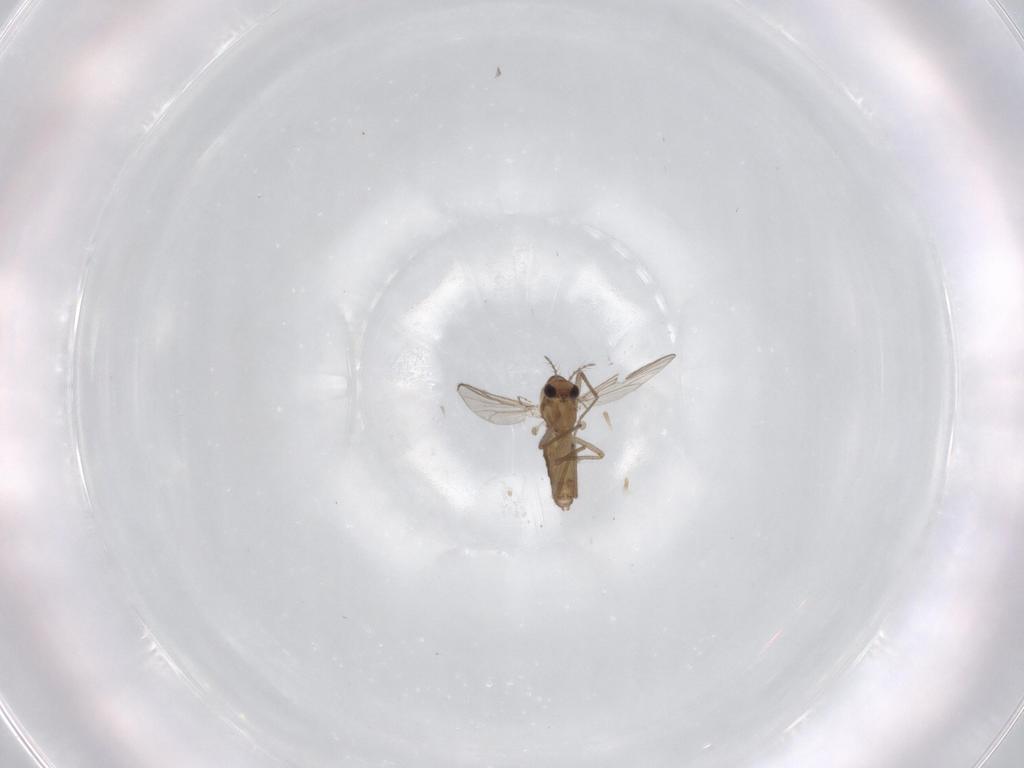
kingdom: Animalia
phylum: Arthropoda
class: Insecta
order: Diptera
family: Chironomidae
